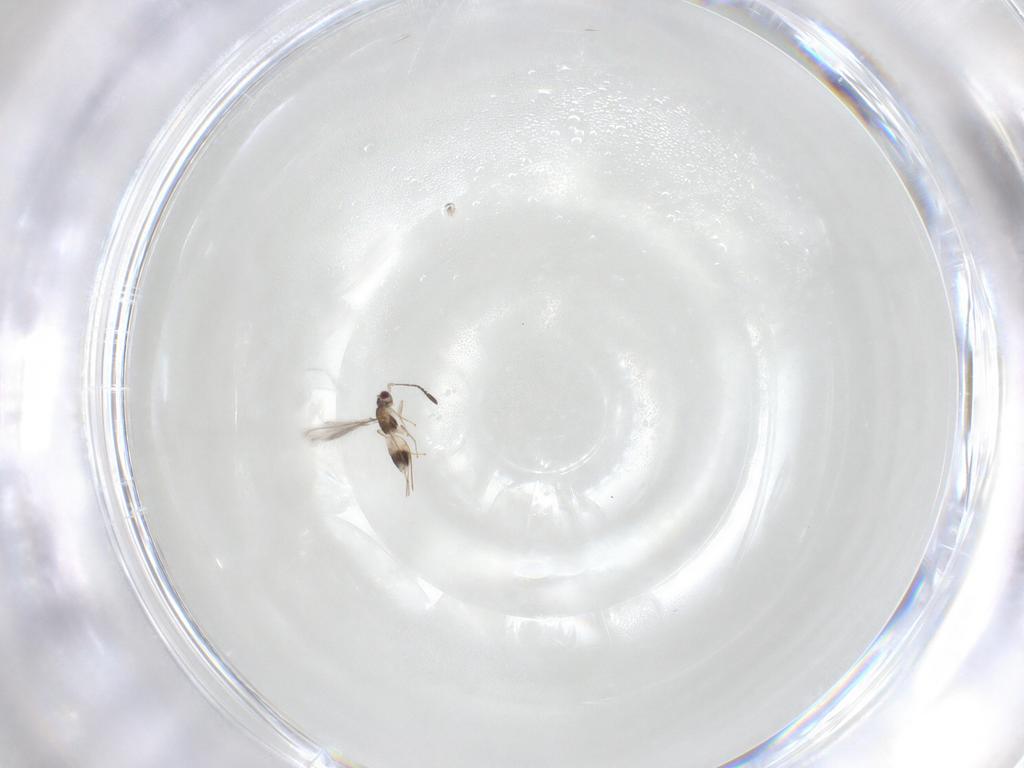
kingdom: Animalia
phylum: Arthropoda
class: Insecta
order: Hymenoptera
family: Mymaridae
